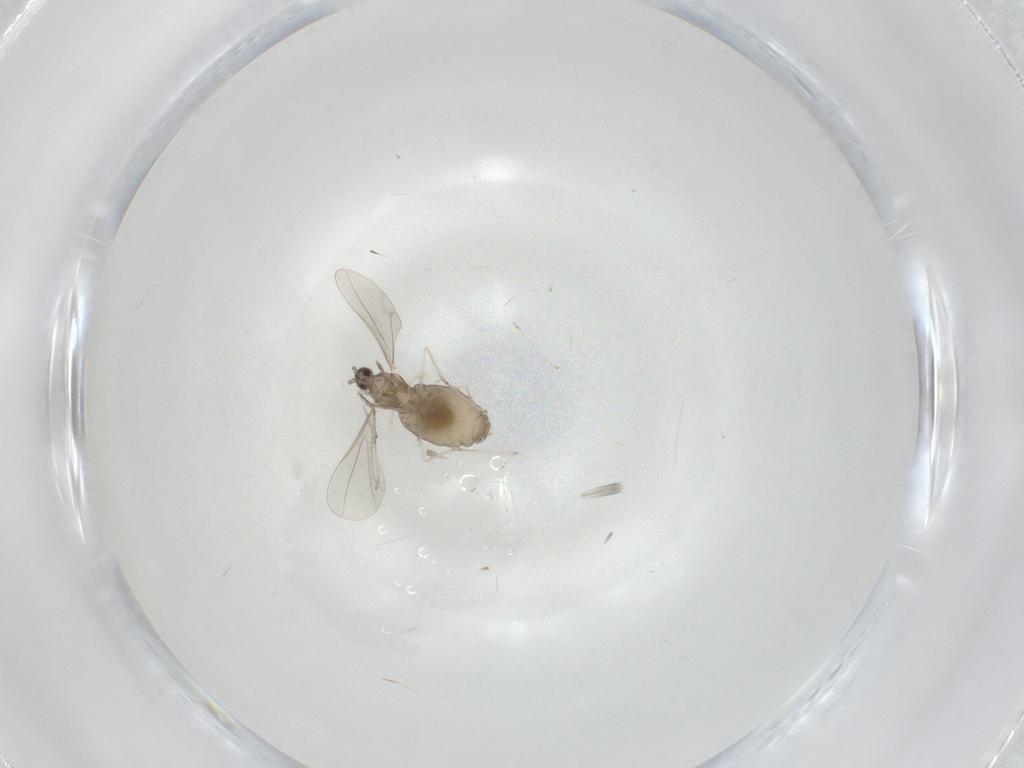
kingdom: Animalia
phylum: Arthropoda
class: Insecta
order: Diptera
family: Cecidomyiidae
